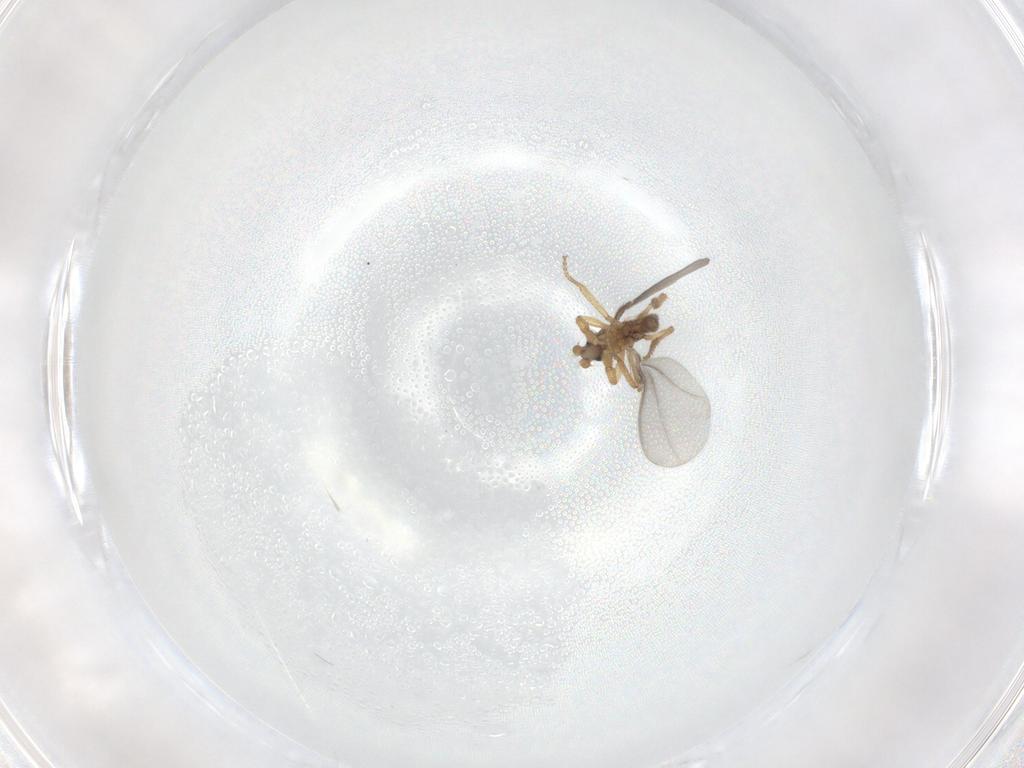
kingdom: Animalia
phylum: Arthropoda
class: Insecta
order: Diptera
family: Phoridae
